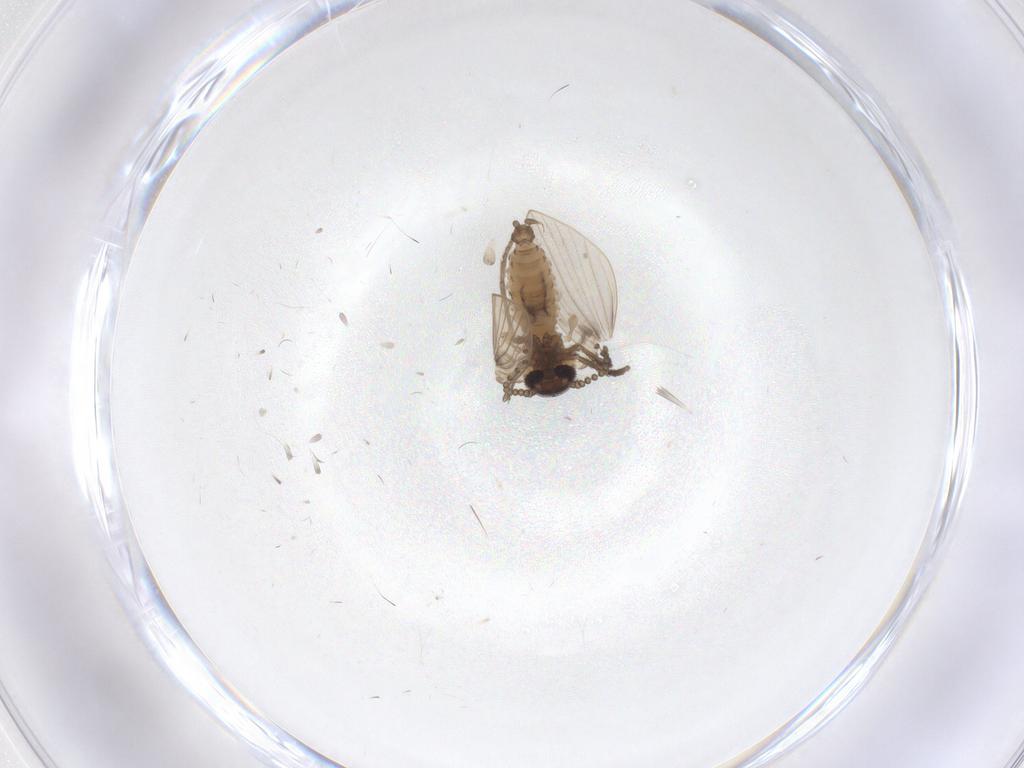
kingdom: Animalia
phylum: Arthropoda
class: Insecta
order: Diptera
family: Psychodidae
